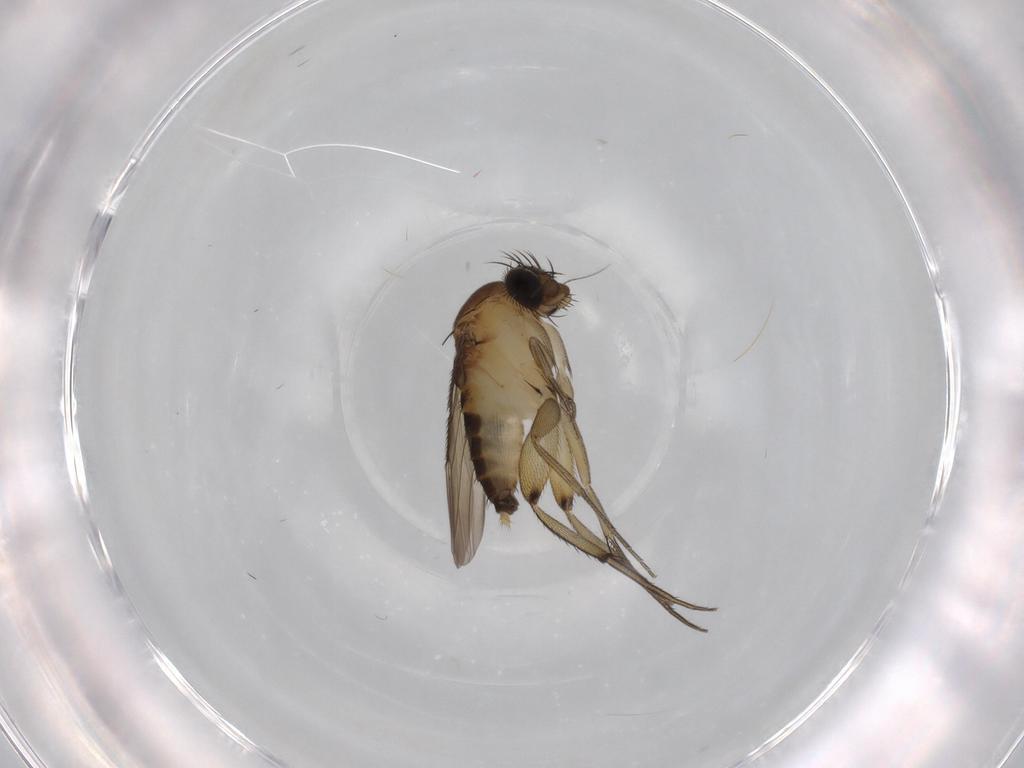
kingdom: Animalia
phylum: Arthropoda
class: Insecta
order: Diptera
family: Phoridae
